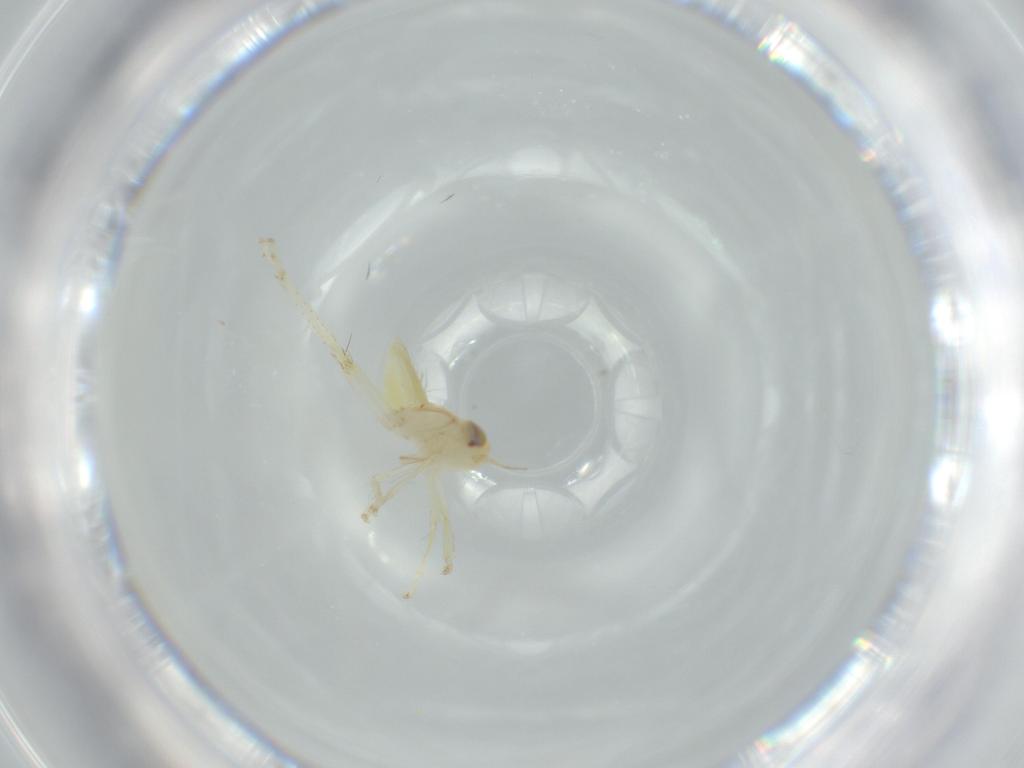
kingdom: Animalia
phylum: Arthropoda
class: Insecta
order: Hemiptera
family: Cicadellidae
